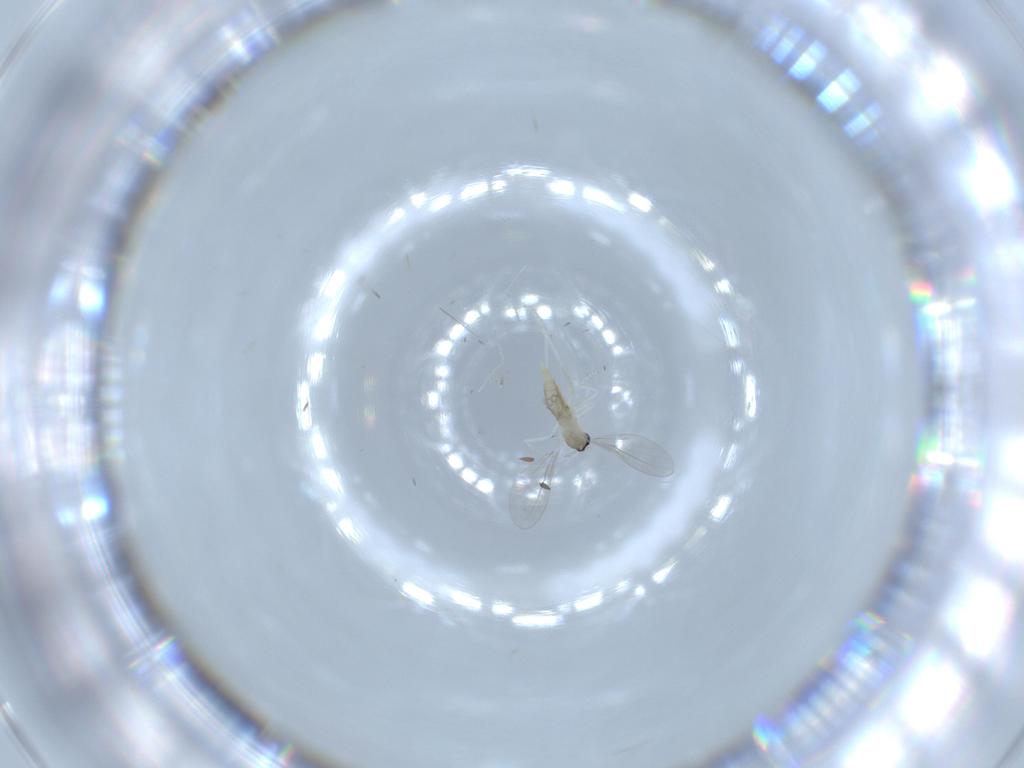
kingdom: Animalia
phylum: Arthropoda
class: Insecta
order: Diptera
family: Cecidomyiidae
